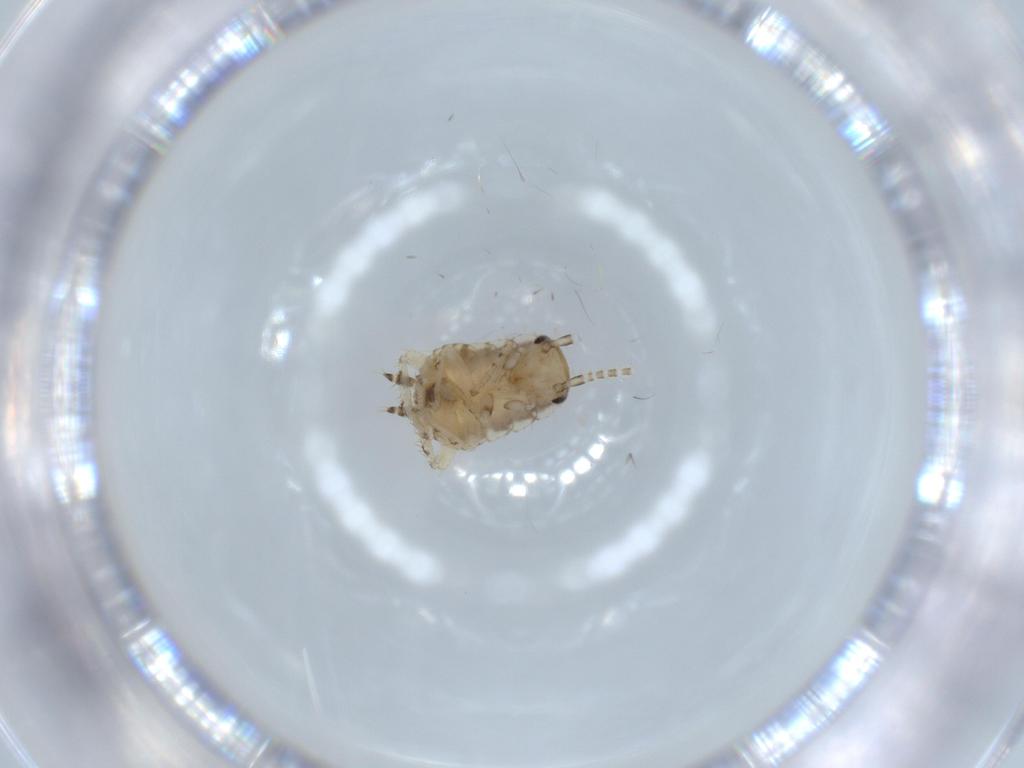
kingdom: Animalia
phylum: Arthropoda
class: Insecta
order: Blattodea
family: Ectobiidae
